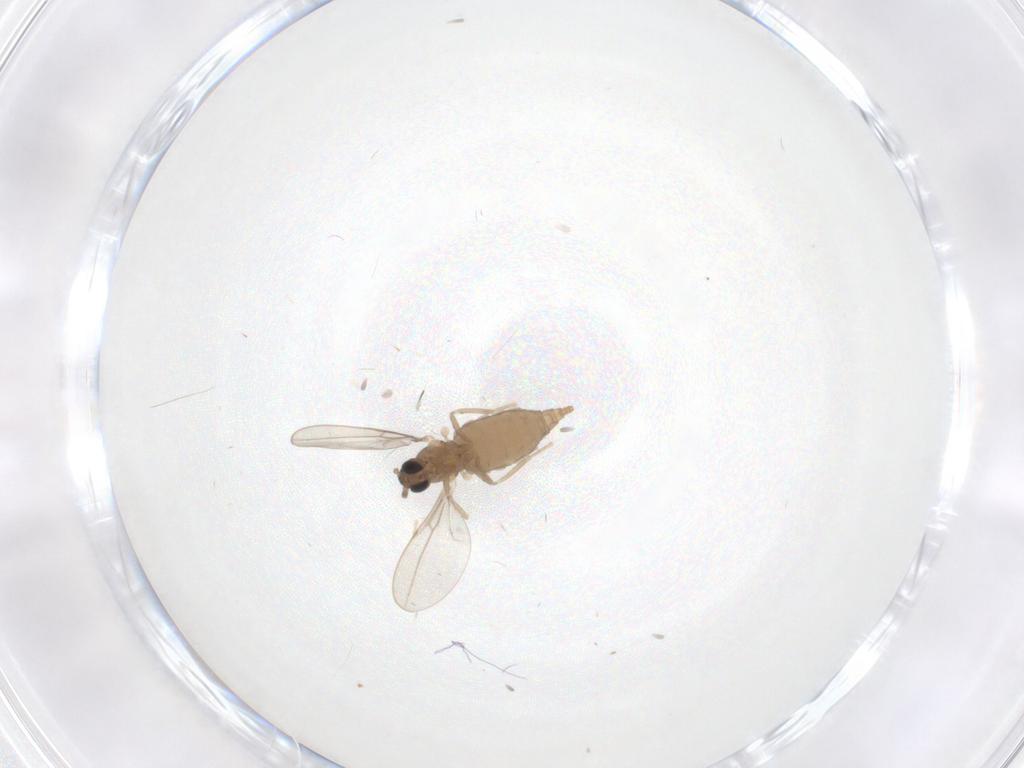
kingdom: Animalia
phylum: Arthropoda
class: Insecta
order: Diptera
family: Cecidomyiidae
